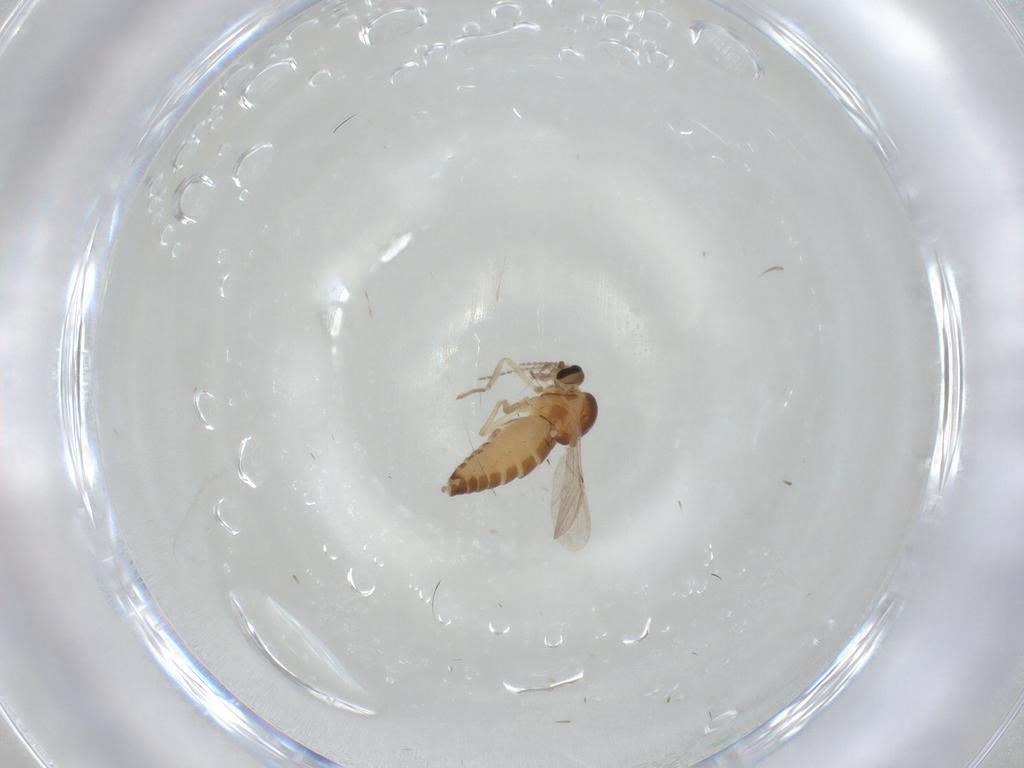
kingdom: Animalia
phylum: Arthropoda
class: Insecta
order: Diptera
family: Ceratopogonidae
